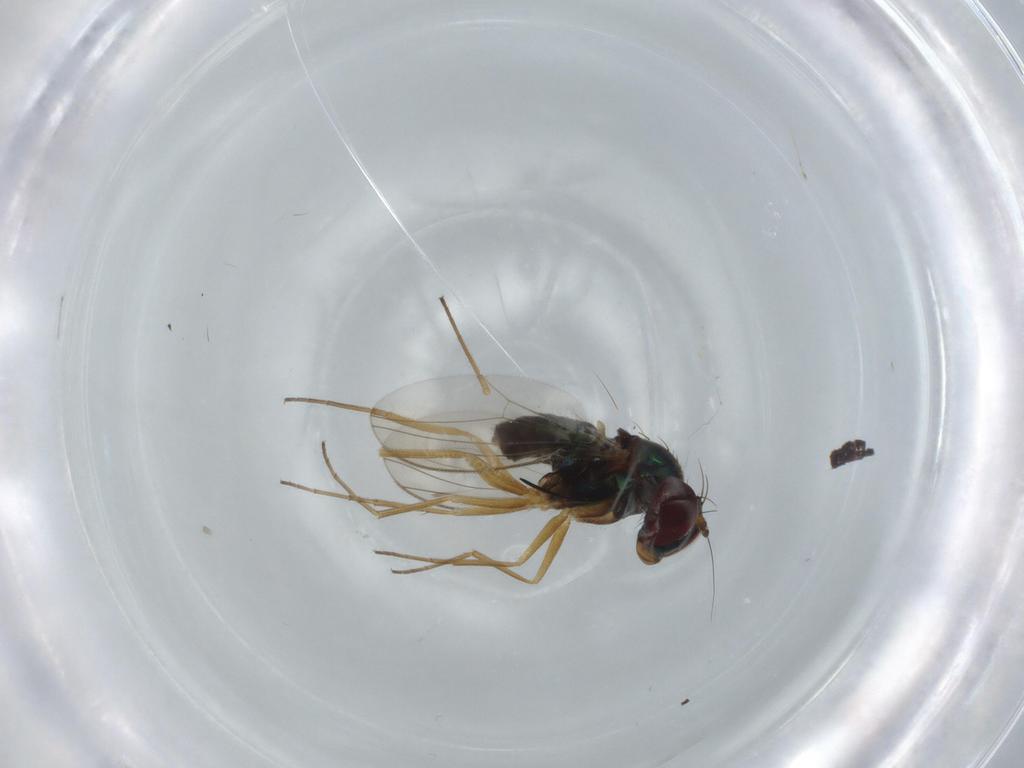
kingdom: Animalia
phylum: Arthropoda
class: Insecta
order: Diptera
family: Dolichopodidae
